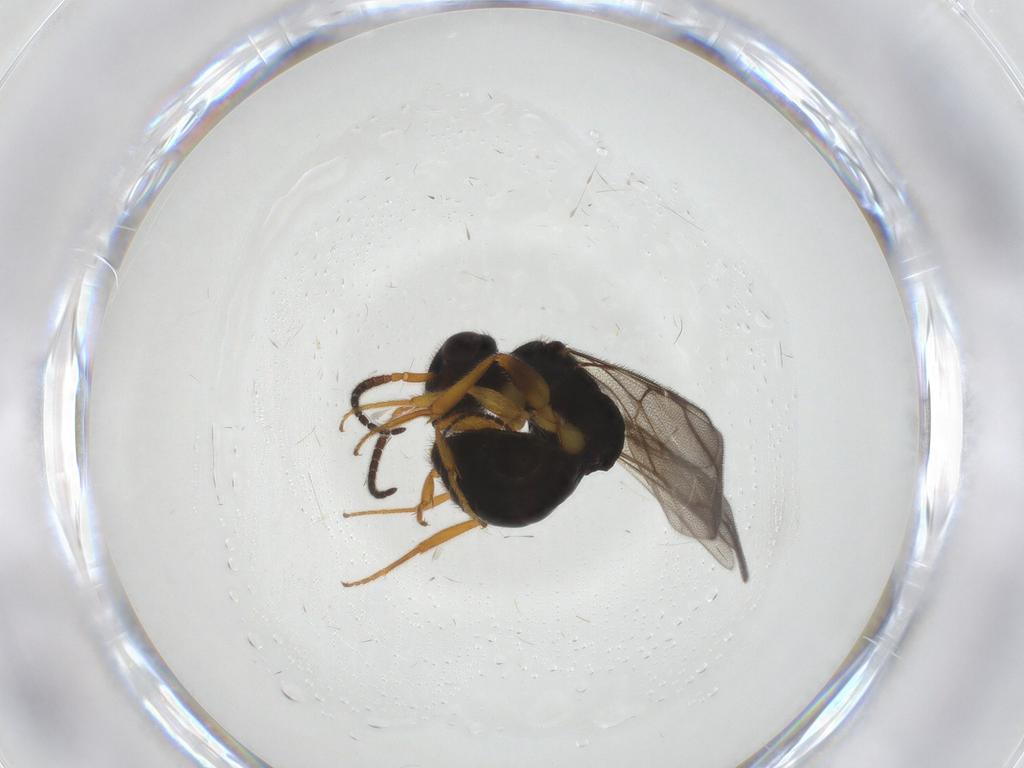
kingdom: Animalia
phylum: Arthropoda
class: Insecta
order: Hymenoptera
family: Bethylidae
